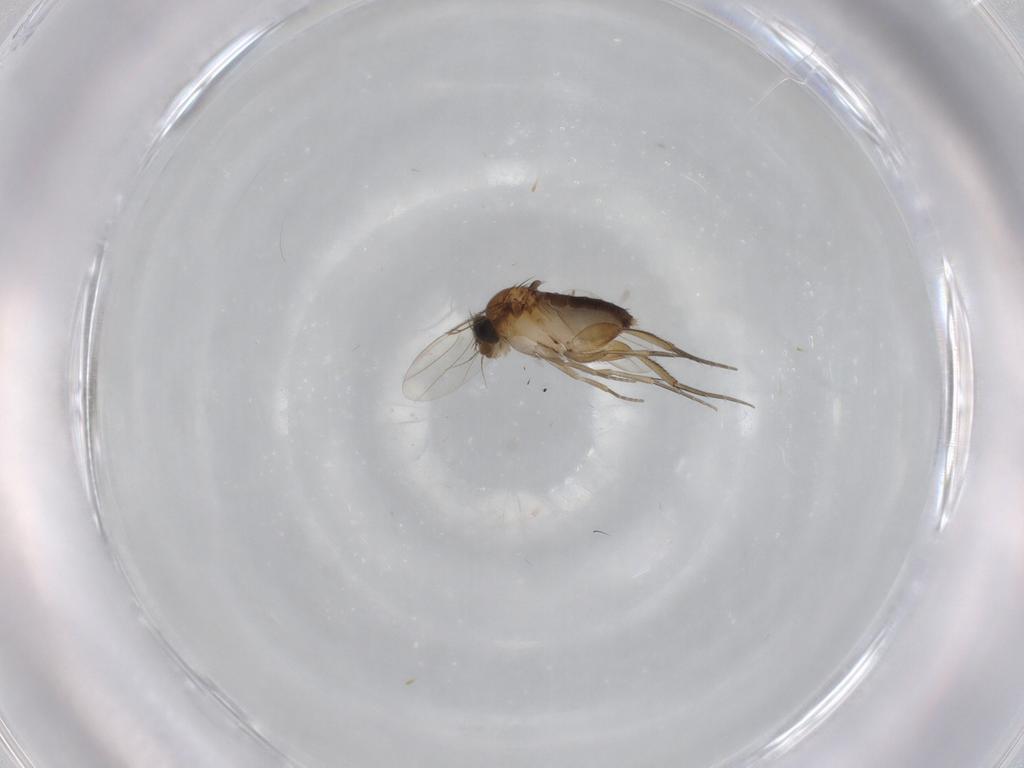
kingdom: Animalia
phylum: Arthropoda
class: Insecta
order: Diptera
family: Phoridae
